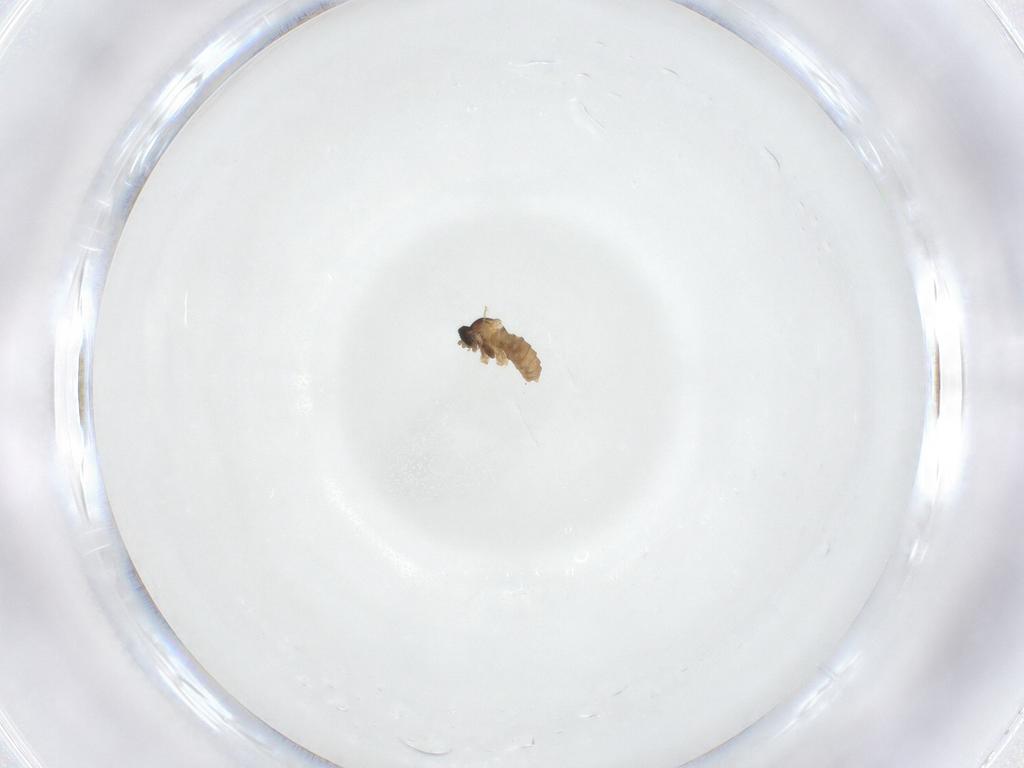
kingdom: Animalia
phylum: Arthropoda
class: Insecta
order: Diptera
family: Cecidomyiidae
